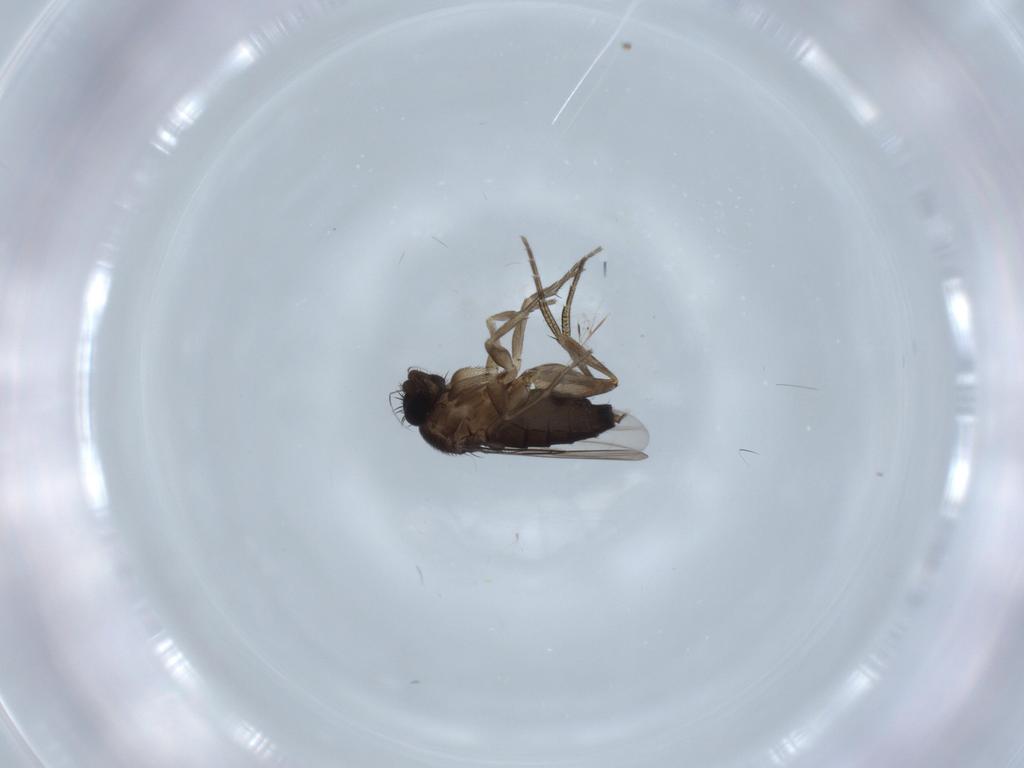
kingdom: Animalia
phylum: Arthropoda
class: Insecta
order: Diptera
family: Phoridae
